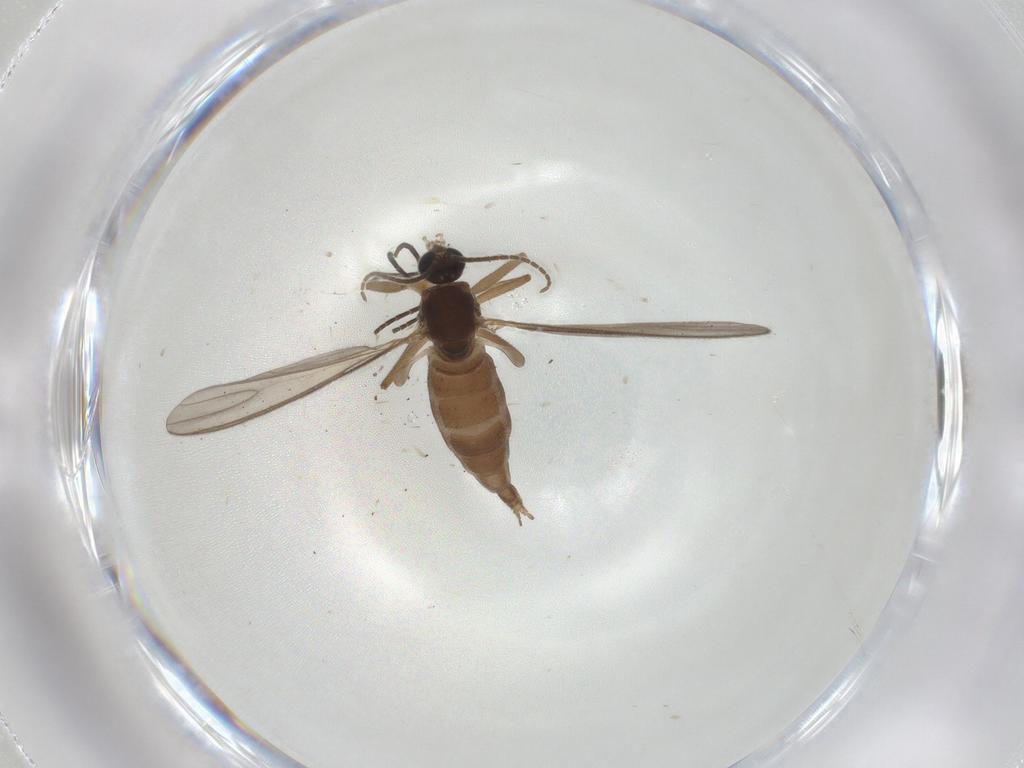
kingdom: Animalia
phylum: Arthropoda
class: Insecta
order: Diptera
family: Sciaridae
